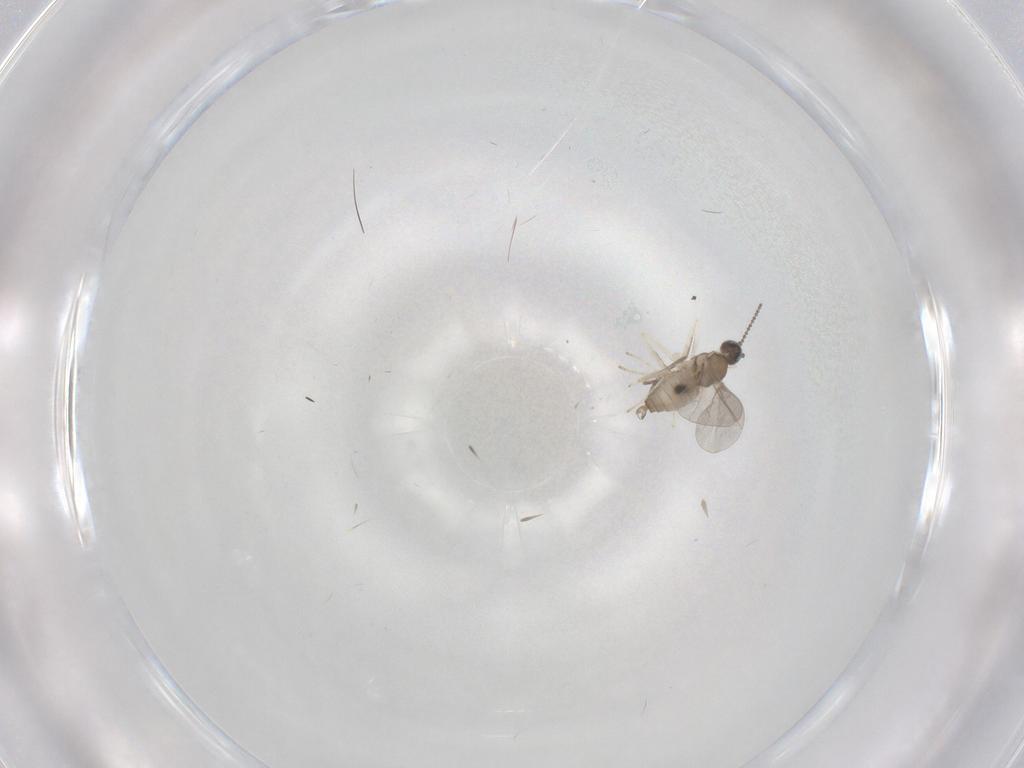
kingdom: Animalia
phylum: Arthropoda
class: Insecta
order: Diptera
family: Cecidomyiidae
